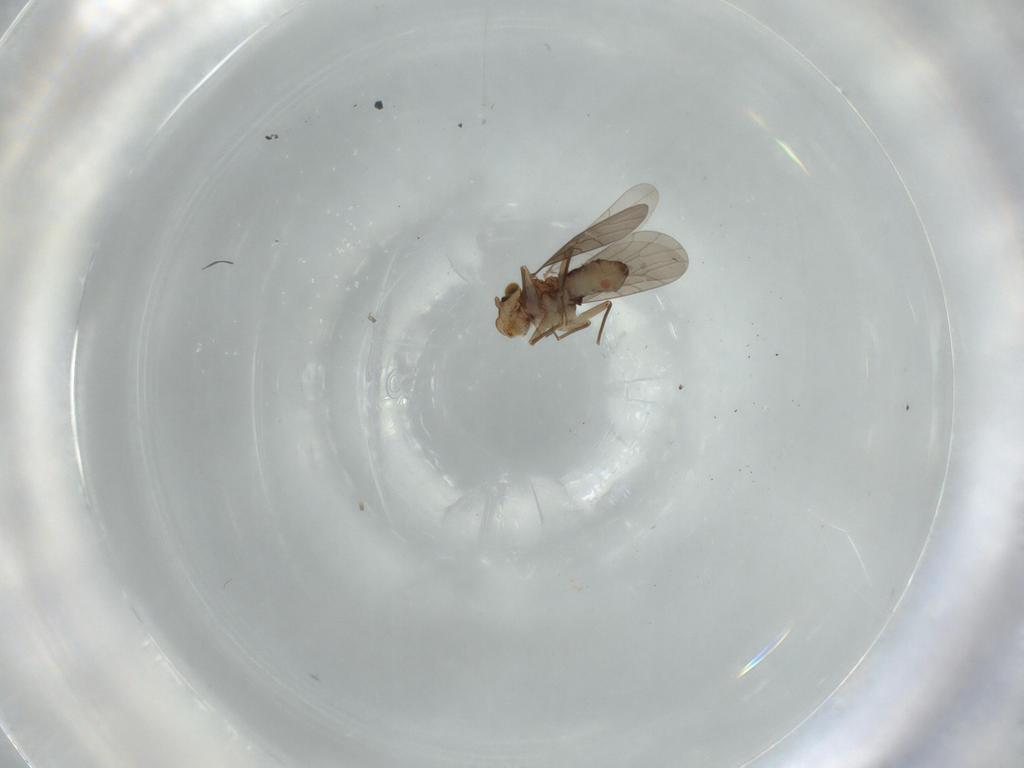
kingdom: Animalia
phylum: Arthropoda
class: Insecta
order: Psocodea
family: Lepidopsocidae
